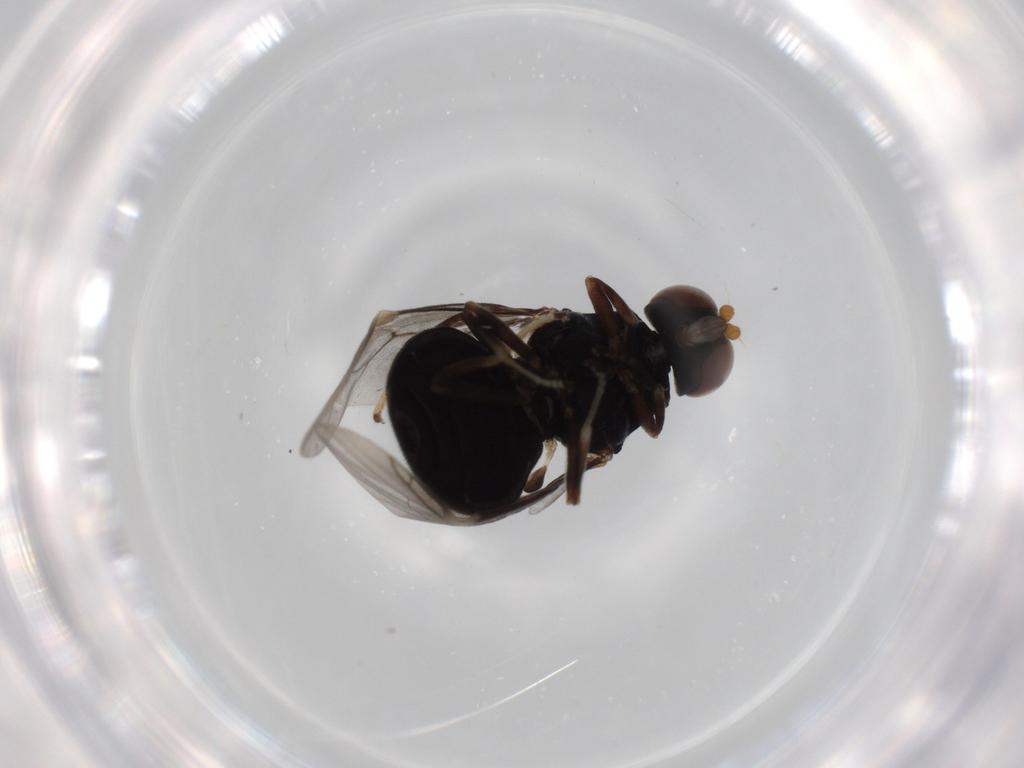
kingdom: Animalia
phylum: Arthropoda
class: Insecta
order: Diptera
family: Stratiomyidae
